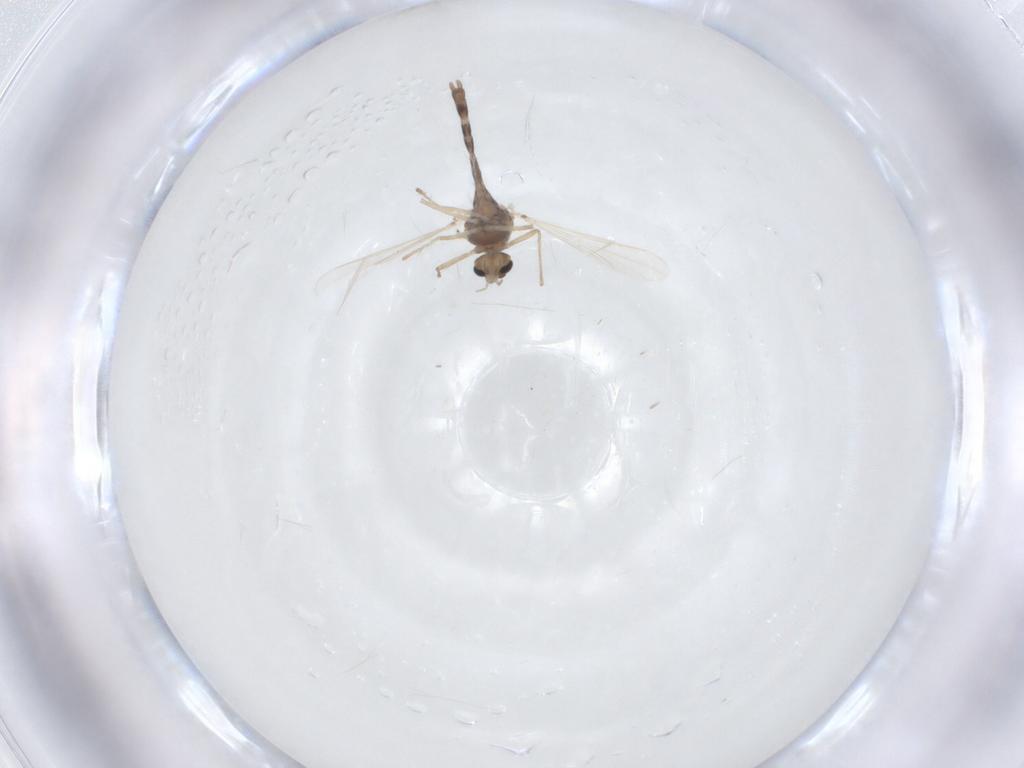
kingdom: Animalia
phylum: Arthropoda
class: Insecta
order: Diptera
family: Chironomidae
